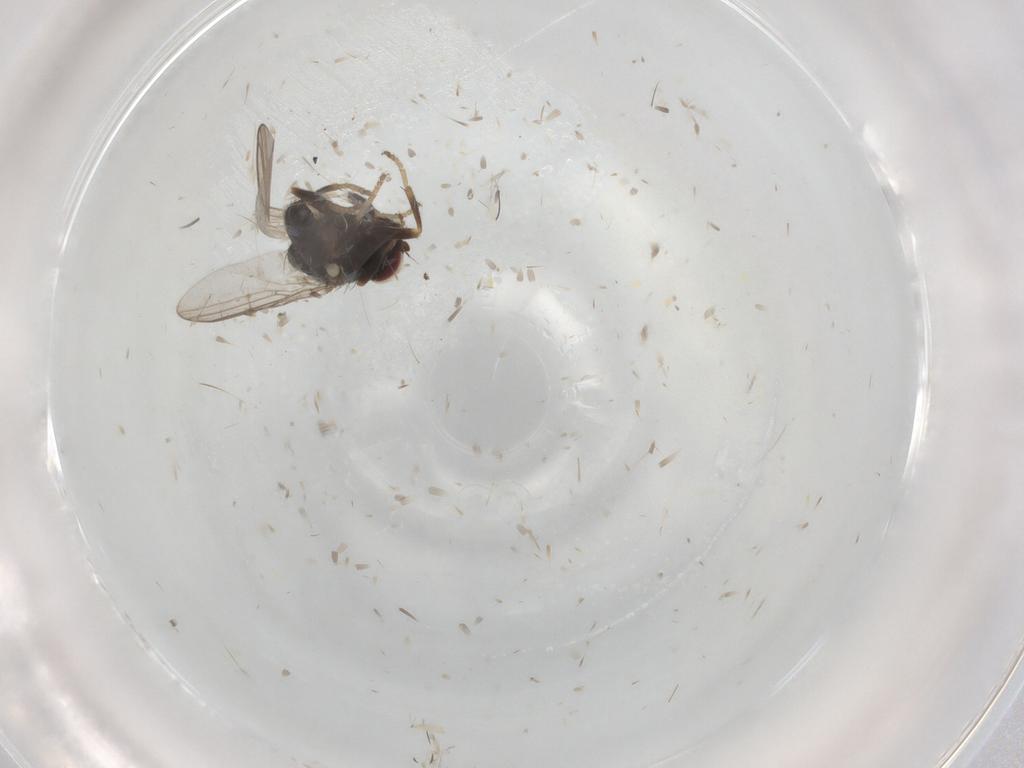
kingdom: Animalia
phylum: Arthropoda
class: Insecta
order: Diptera
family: Chloropidae
